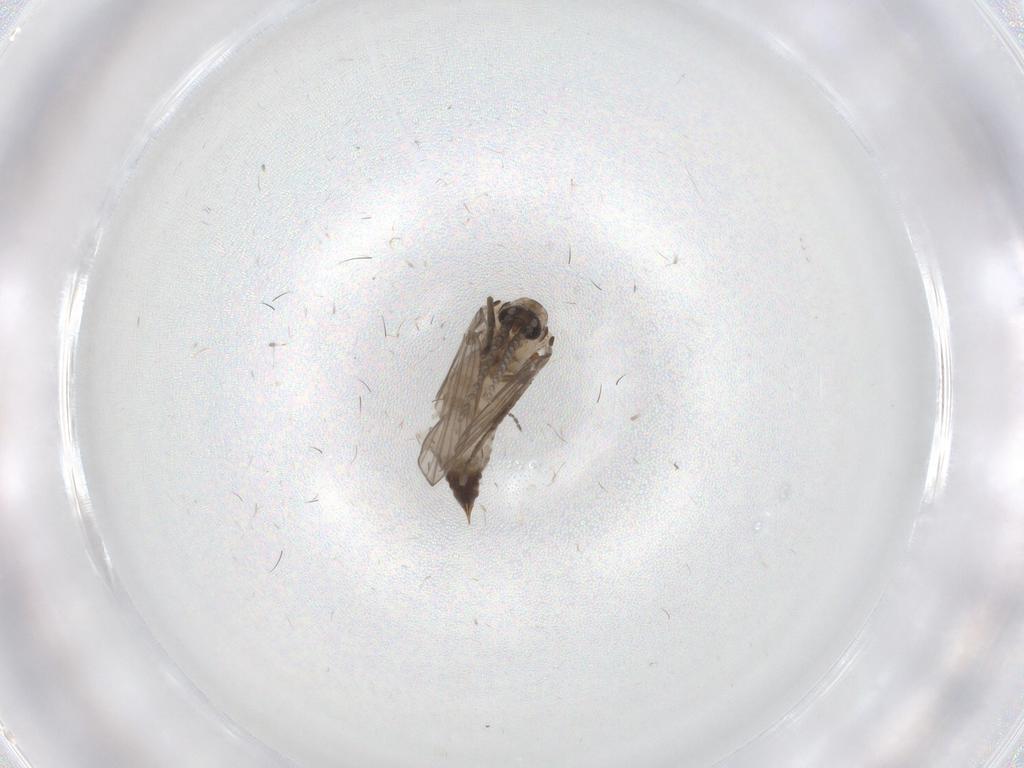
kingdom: Animalia
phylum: Arthropoda
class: Insecta
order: Diptera
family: Psychodidae
